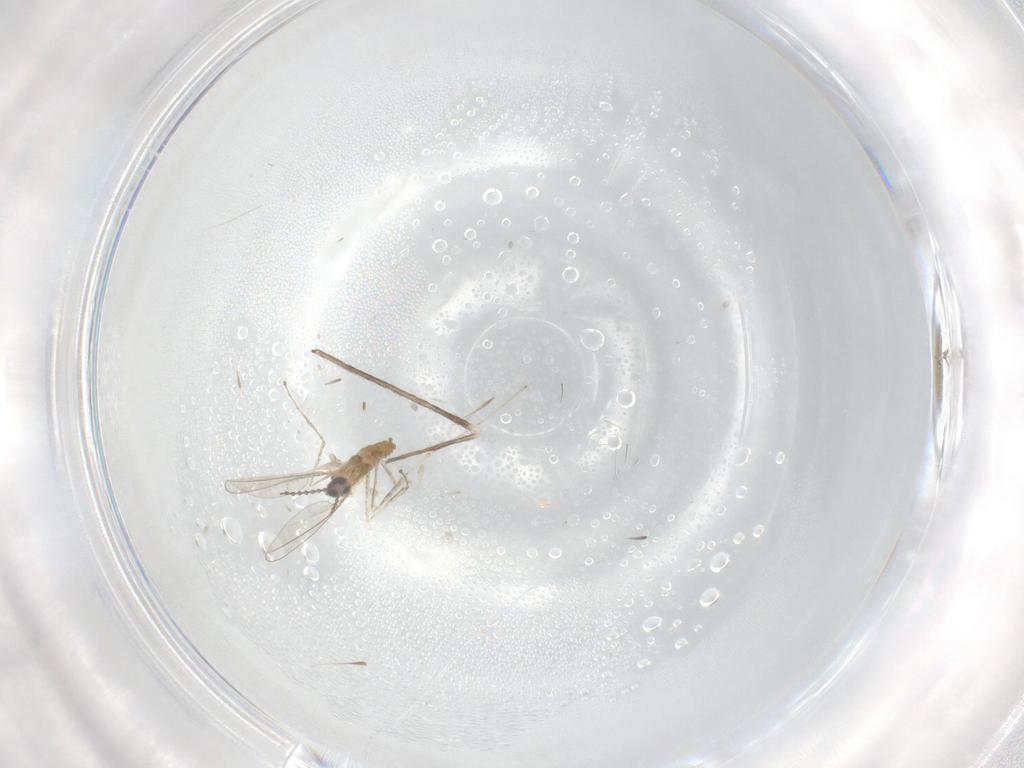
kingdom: Animalia
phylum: Arthropoda
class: Insecta
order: Diptera
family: Cecidomyiidae
